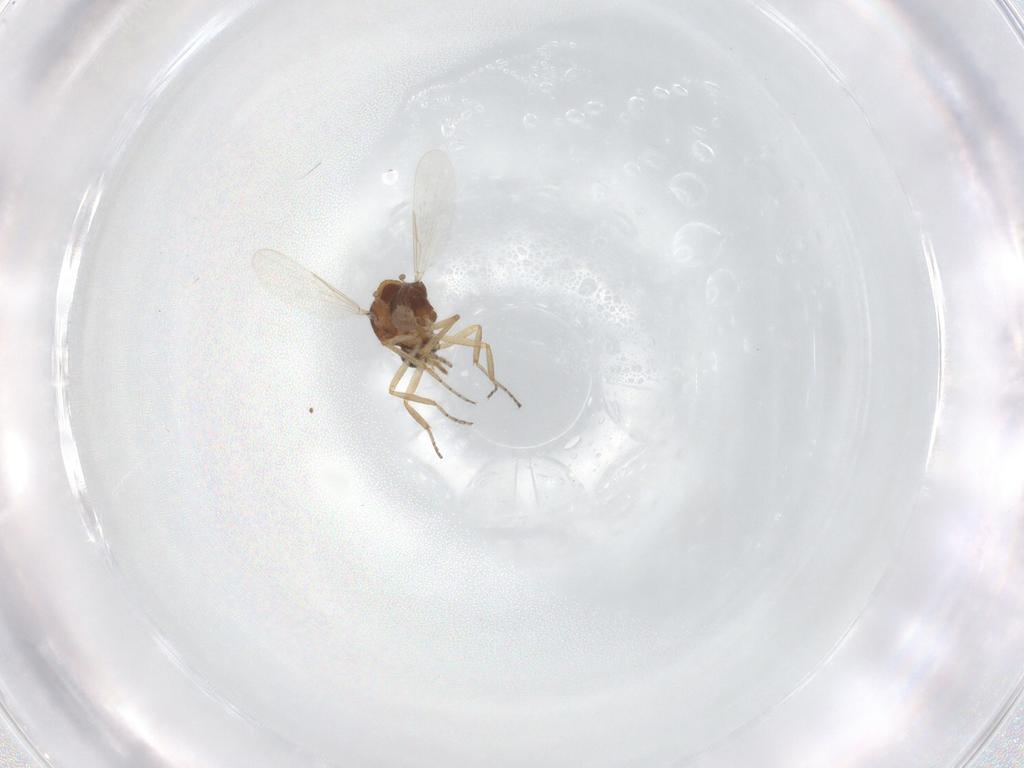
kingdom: Animalia
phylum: Arthropoda
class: Insecta
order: Diptera
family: Ceratopogonidae
